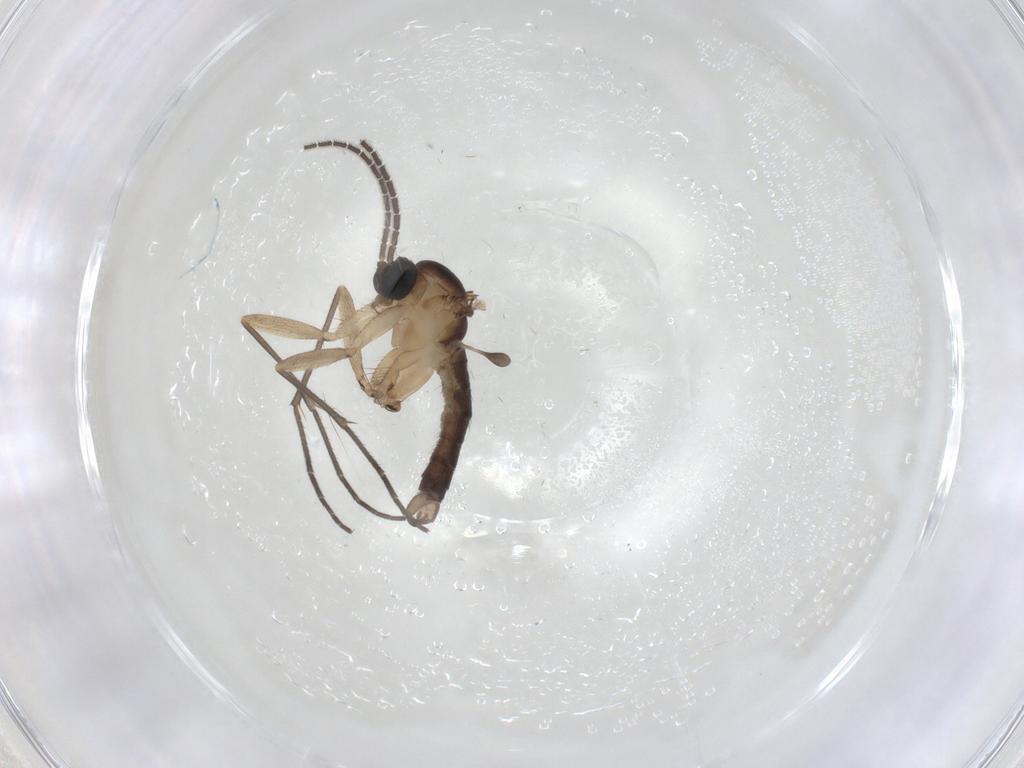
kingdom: Animalia
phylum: Arthropoda
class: Insecta
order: Diptera
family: Sciaridae
